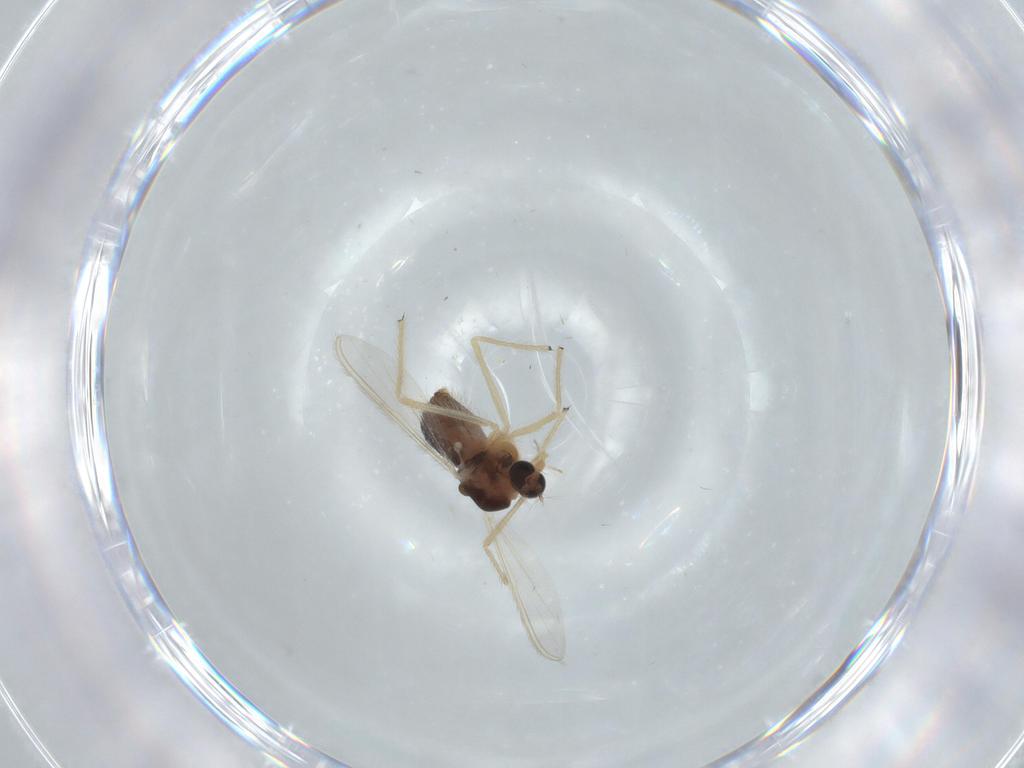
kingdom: Animalia
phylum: Arthropoda
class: Insecta
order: Diptera
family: Chironomidae
